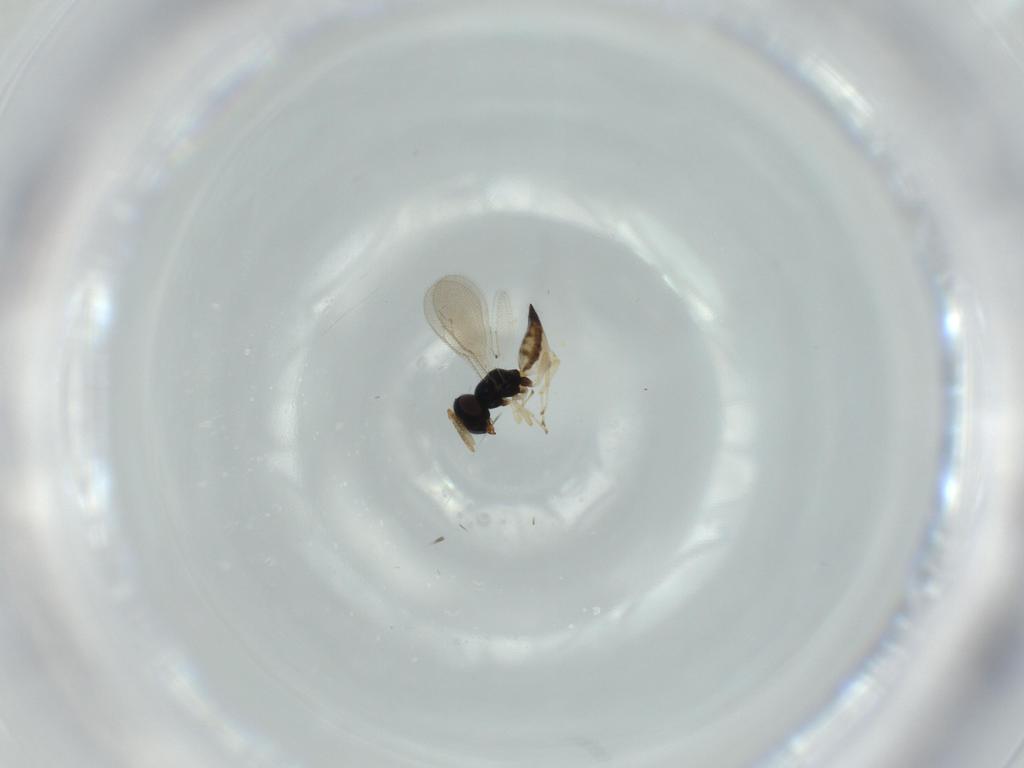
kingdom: Animalia
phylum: Arthropoda
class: Insecta
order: Hymenoptera
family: Pteromalidae
